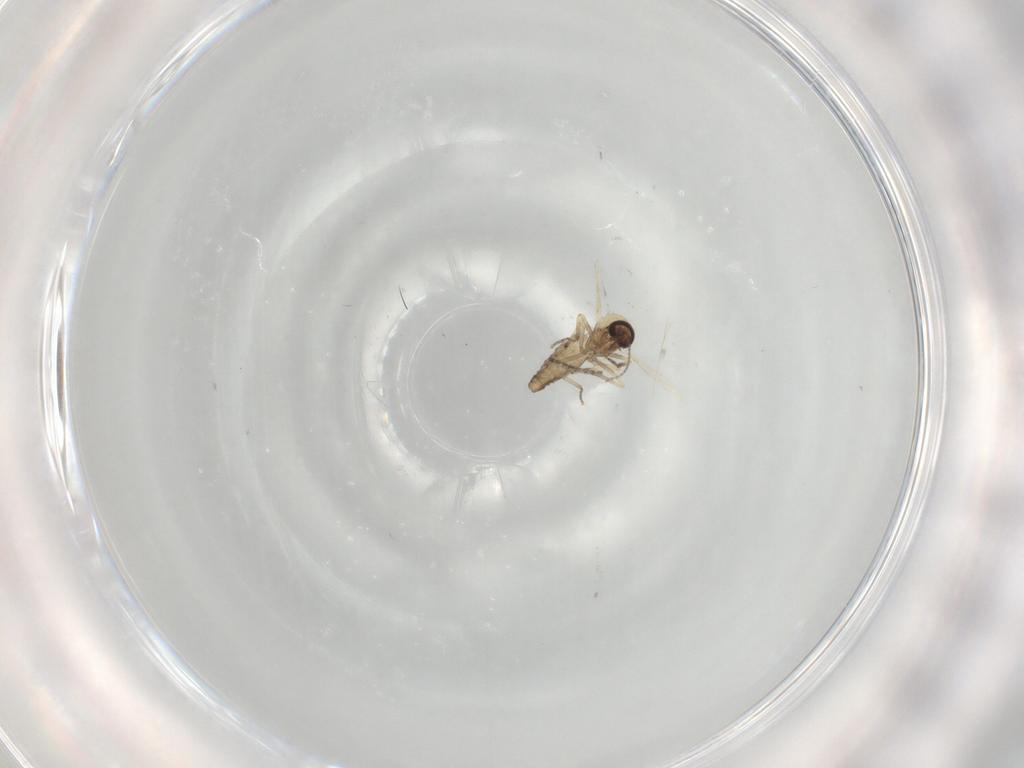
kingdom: Animalia
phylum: Arthropoda
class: Insecta
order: Diptera
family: Sciaridae
